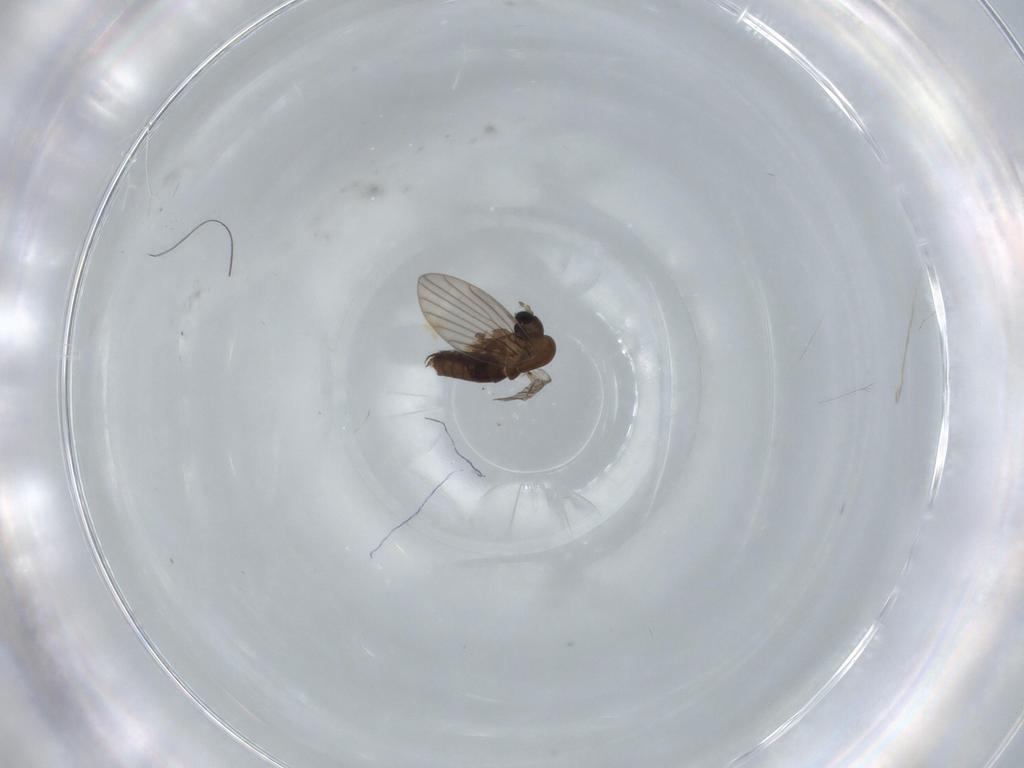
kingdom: Animalia
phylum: Arthropoda
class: Insecta
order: Diptera
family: Psychodidae
